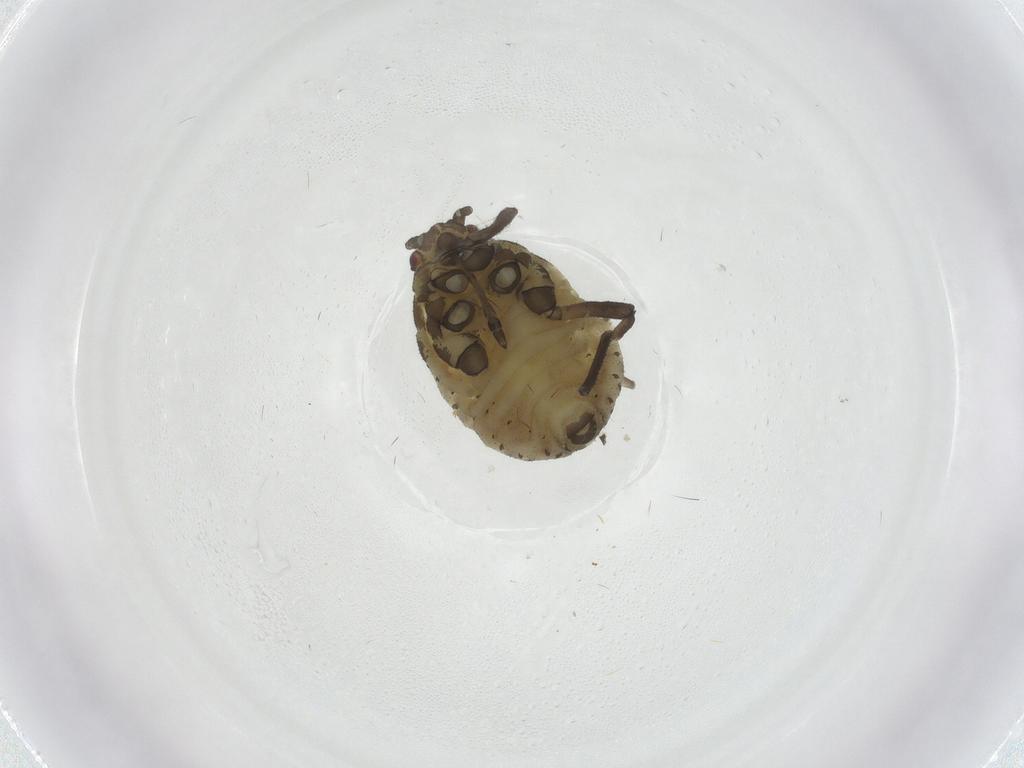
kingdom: Animalia
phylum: Arthropoda
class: Insecta
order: Hemiptera
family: Aphididae
